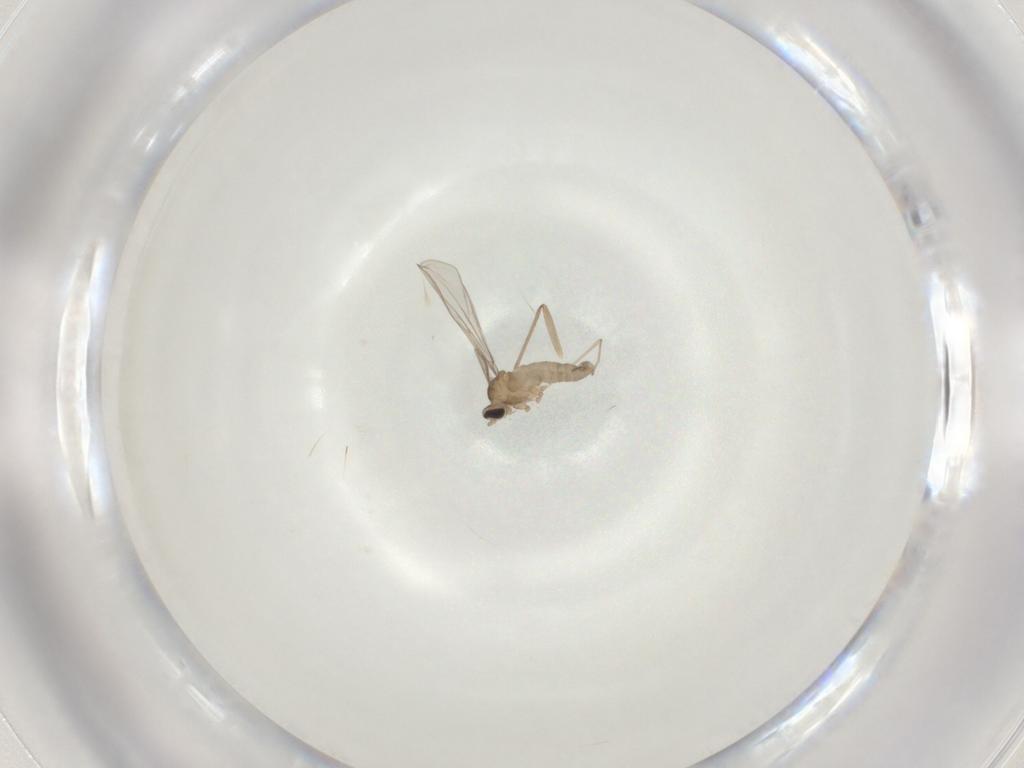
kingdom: Animalia
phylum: Arthropoda
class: Insecta
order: Diptera
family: Cecidomyiidae
